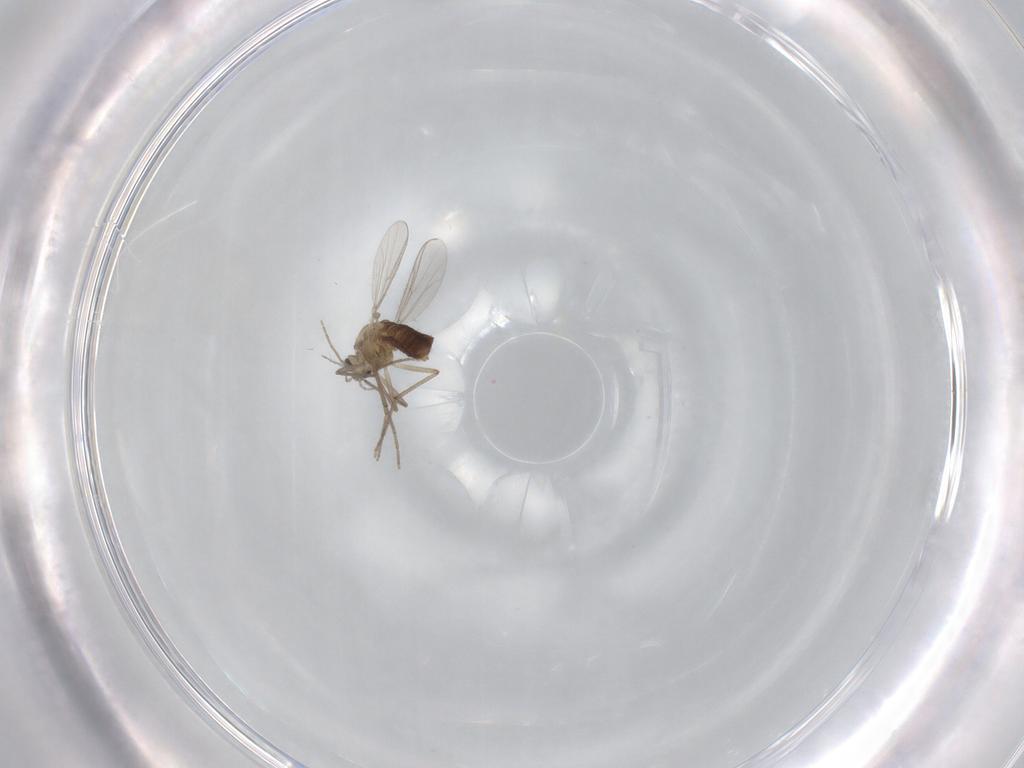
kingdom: Animalia
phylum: Arthropoda
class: Insecta
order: Diptera
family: Chironomidae
